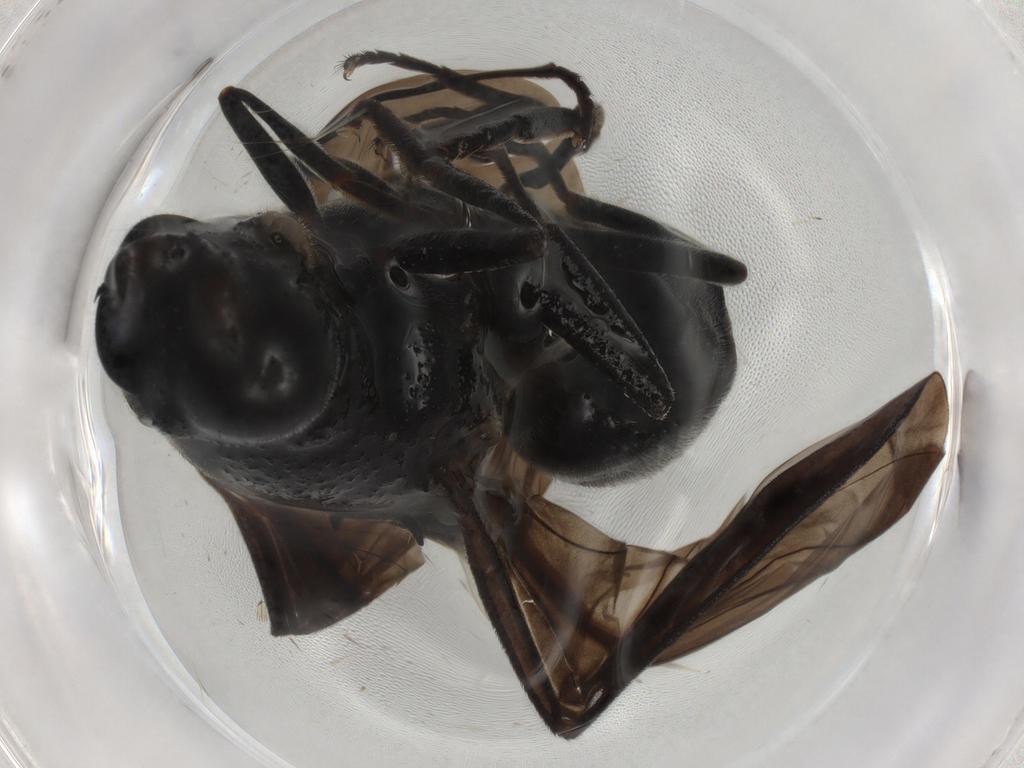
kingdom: Animalia
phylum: Arthropoda
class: Insecta
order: Diptera
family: Stratiomyidae
